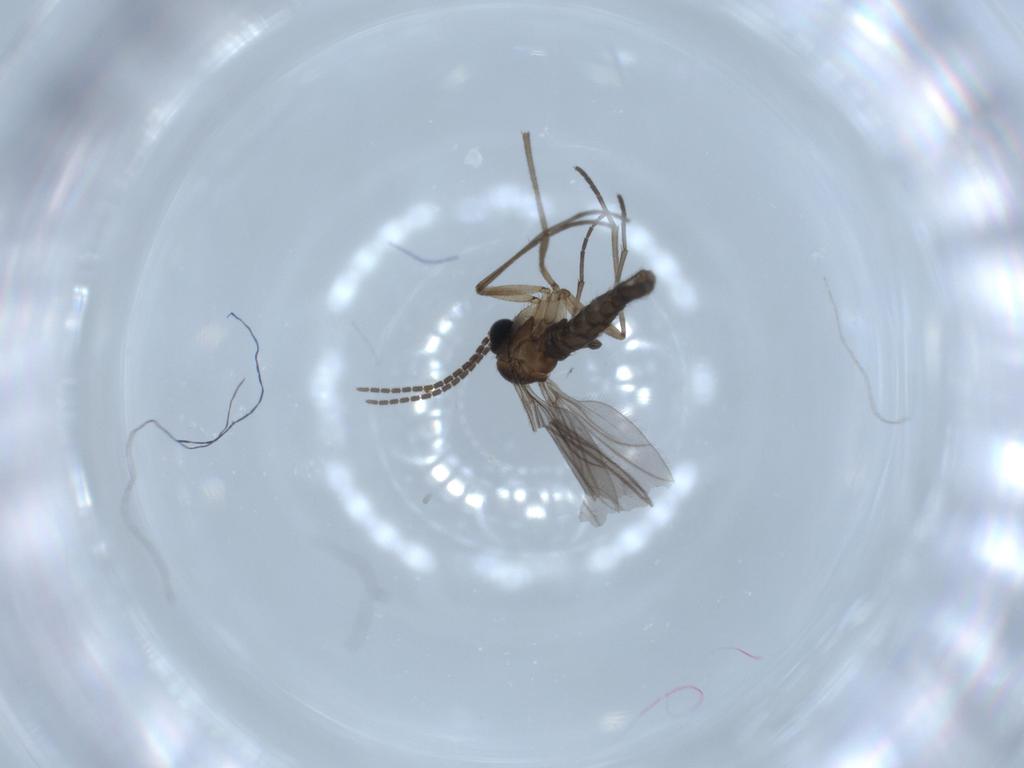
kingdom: Animalia
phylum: Arthropoda
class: Insecta
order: Diptera
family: Sciaridae
